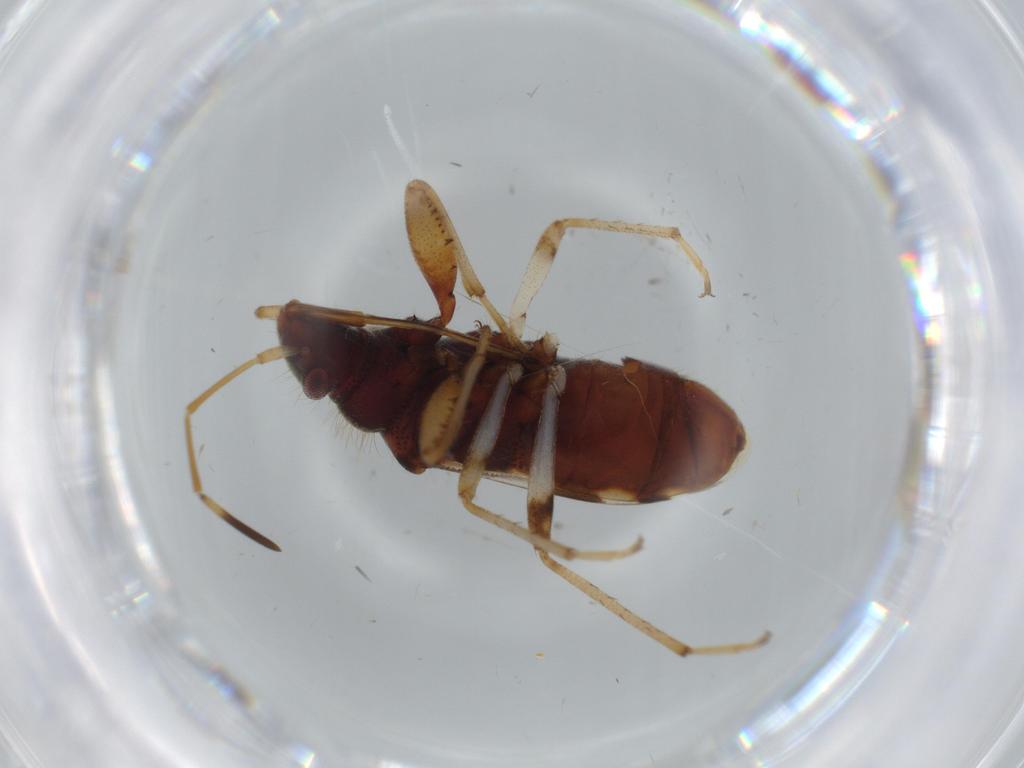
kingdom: Animalia
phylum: Arthropoda
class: Insecta
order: Hemiptera
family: Rhyparochromidae
